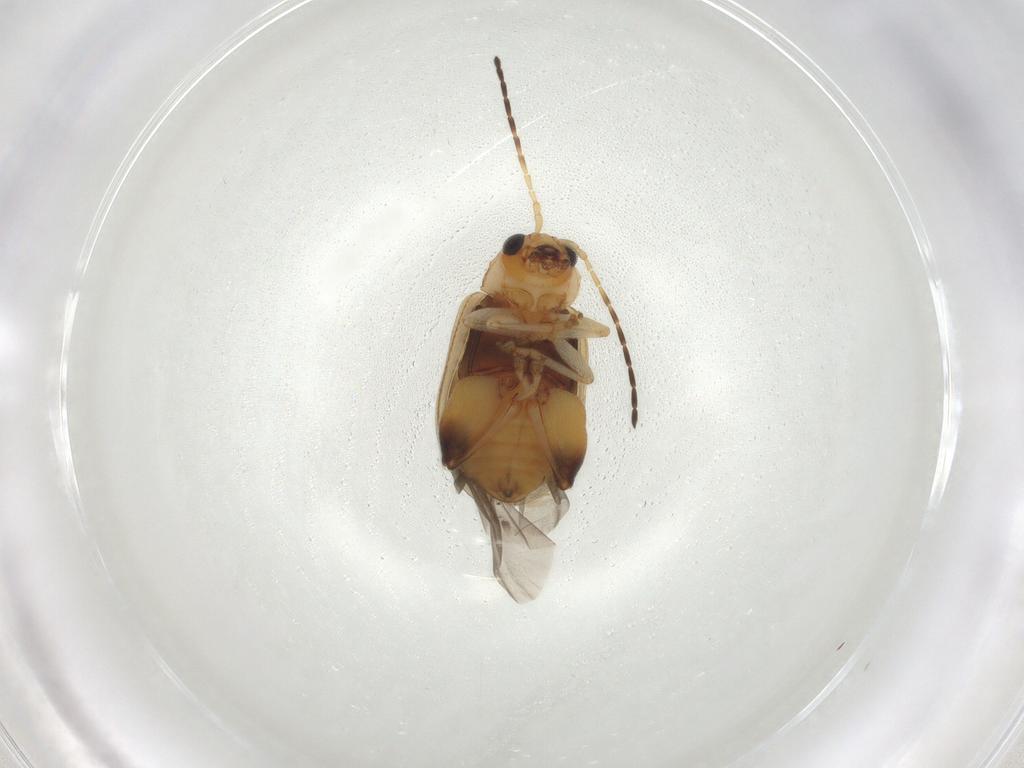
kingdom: Animalia
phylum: Arthropoda
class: Insecta
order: Coleoptera
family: Chrysomelidae
